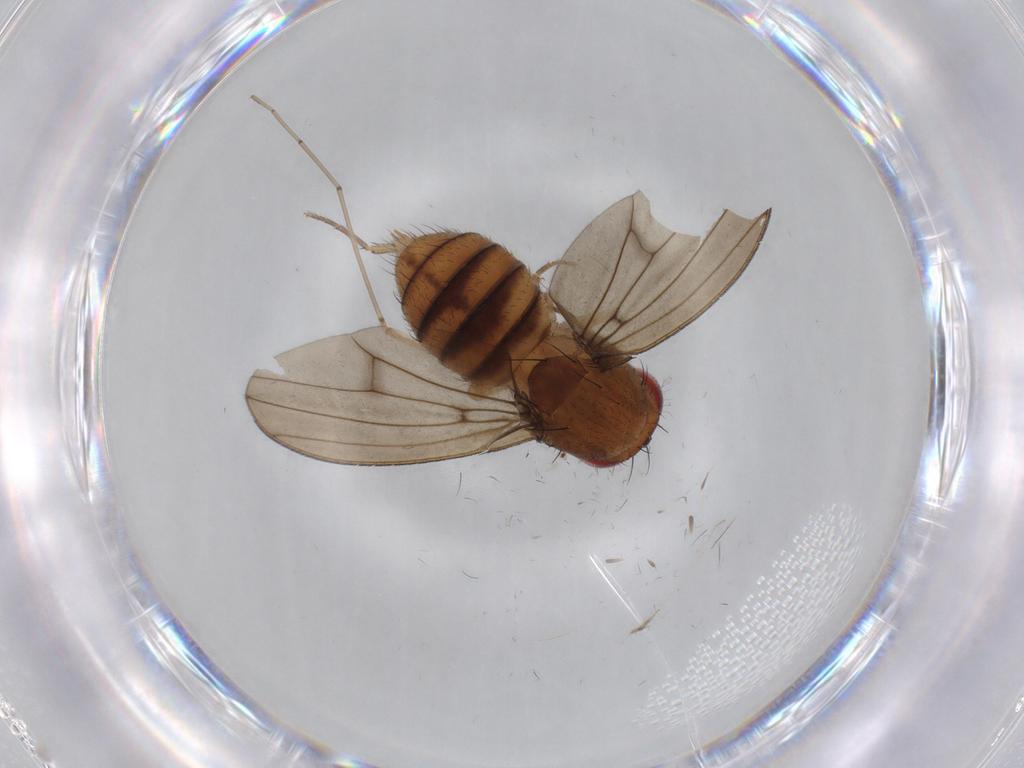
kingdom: Animalia
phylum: Arthropoda
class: Insecta
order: Diptera
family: Drosophilidae
